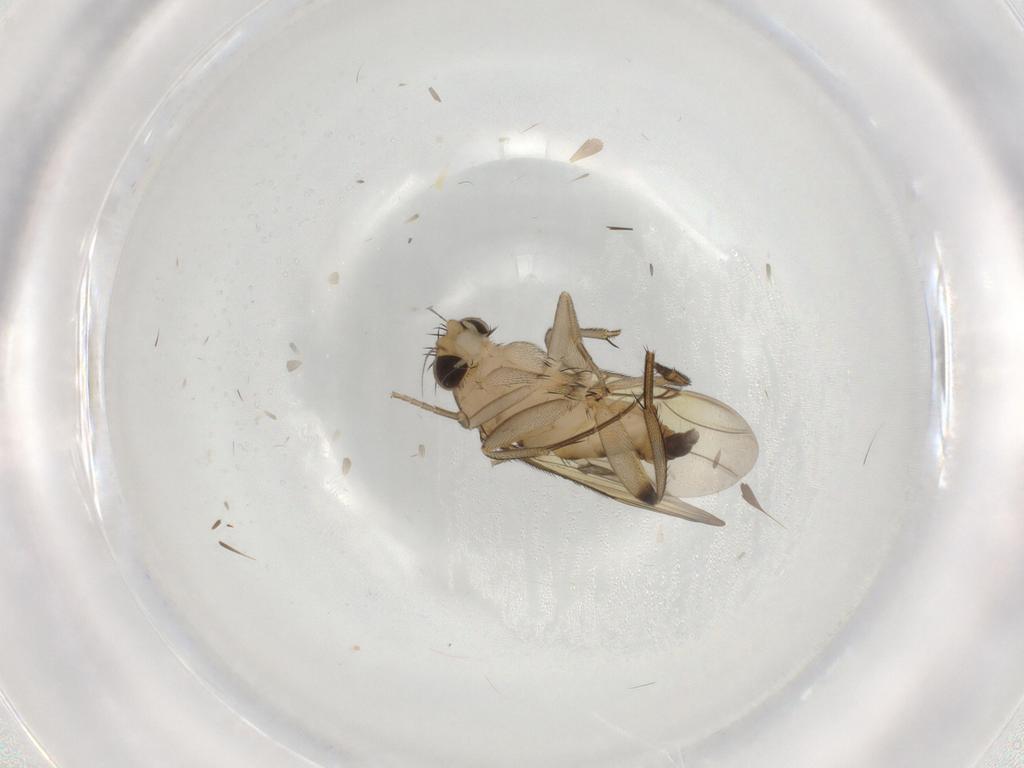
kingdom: Animalia
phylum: Arthropoda
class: Insecta
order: Diptera
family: Phoridae
